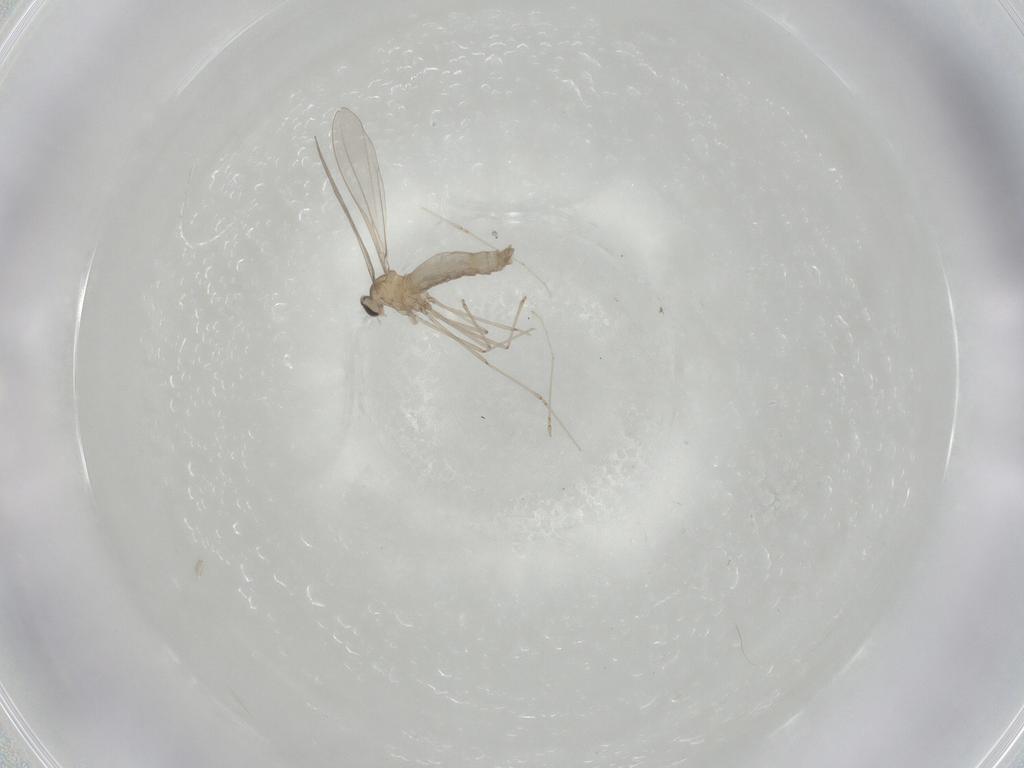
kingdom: Animalia
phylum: Arthropoda
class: Insecta
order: Diptera
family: Cecidomyiidae
